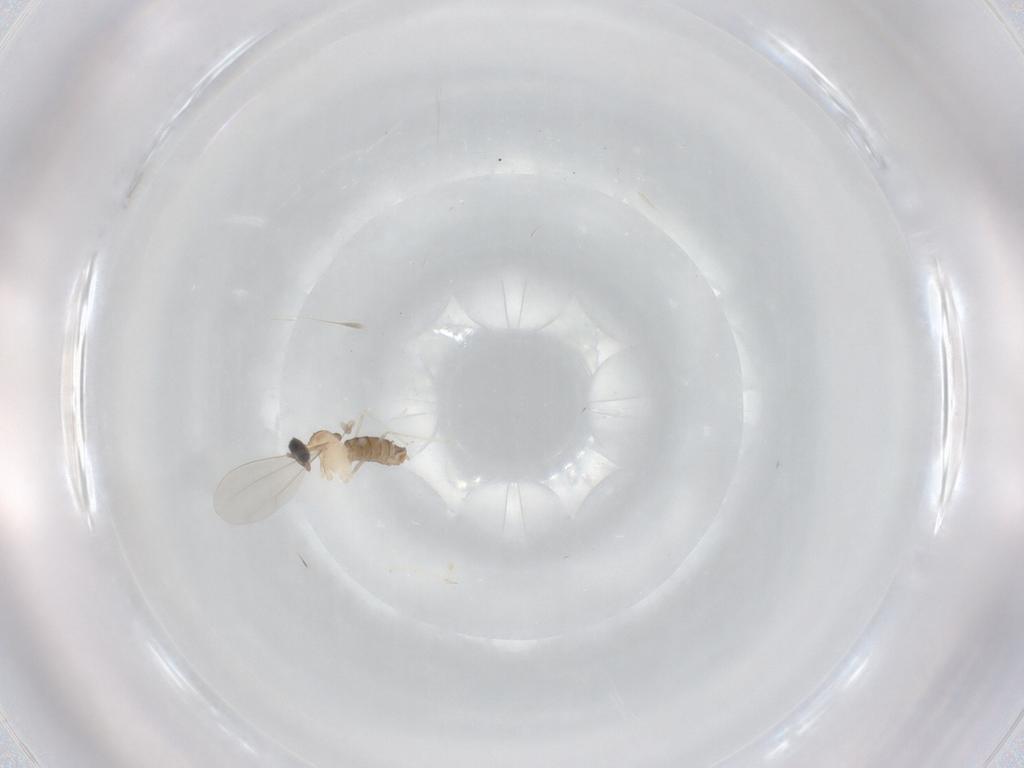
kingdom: Animalia
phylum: Arthropoda
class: Insecta
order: Diptera
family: Cecidomyiidae
